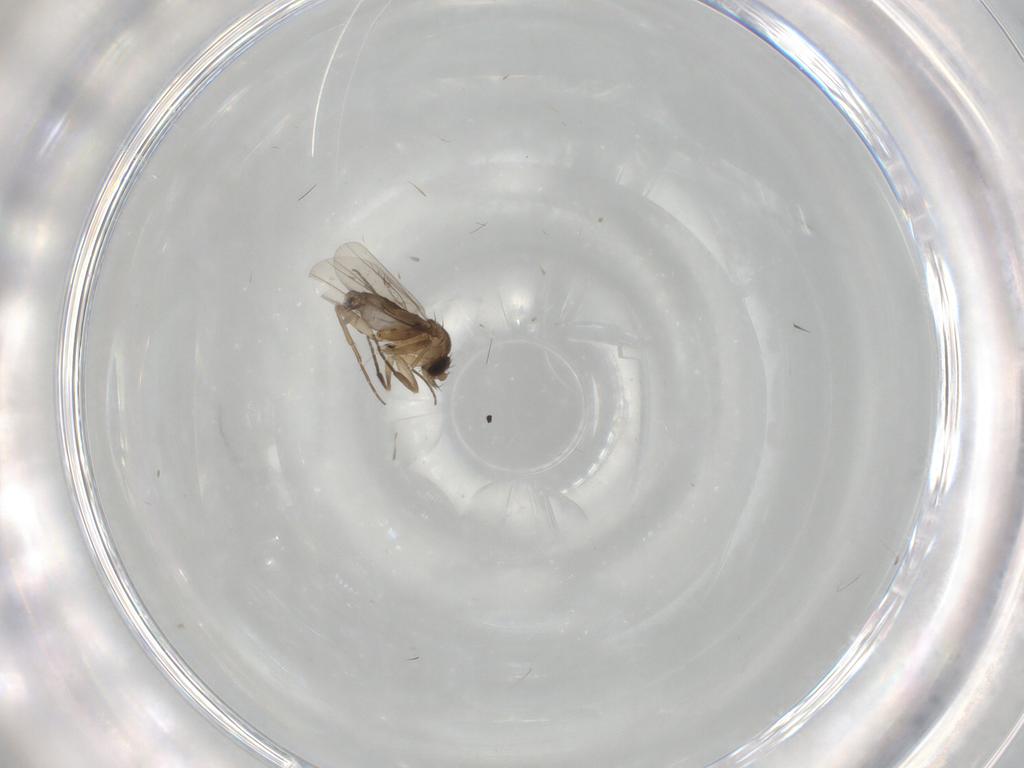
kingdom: Animalia
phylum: Arthropoda
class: Insecta
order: Diptera
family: Phoridae
